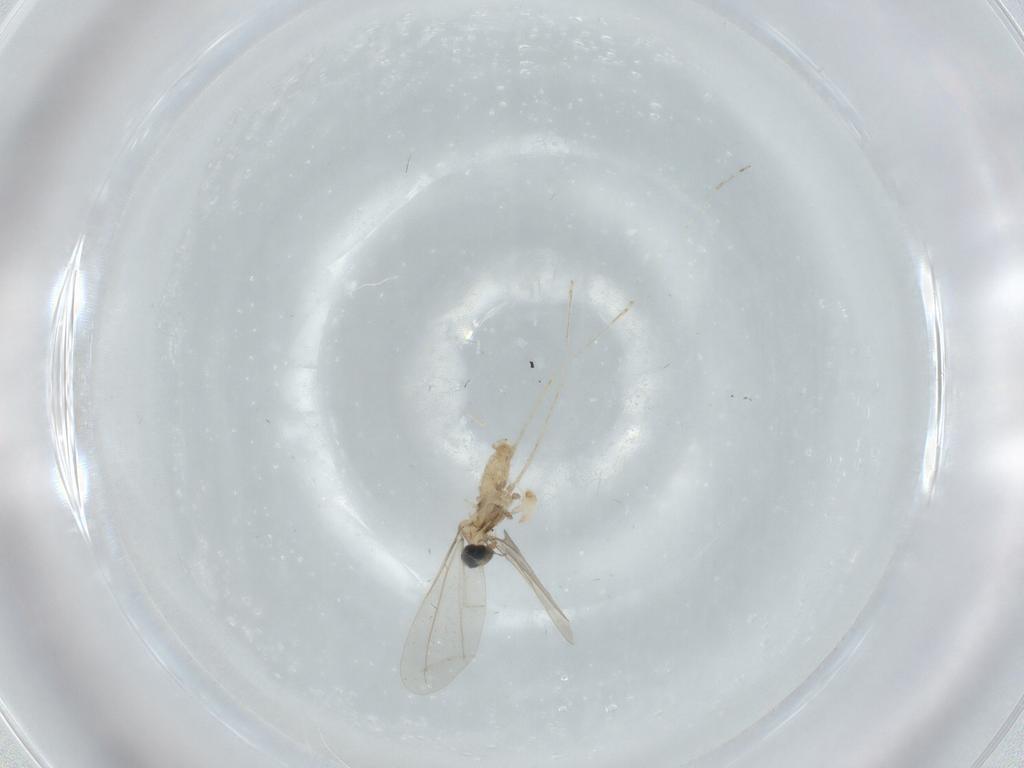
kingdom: Animalia
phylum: Arthropoda
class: Insecta
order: Diptera
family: Cecidomyiidae
